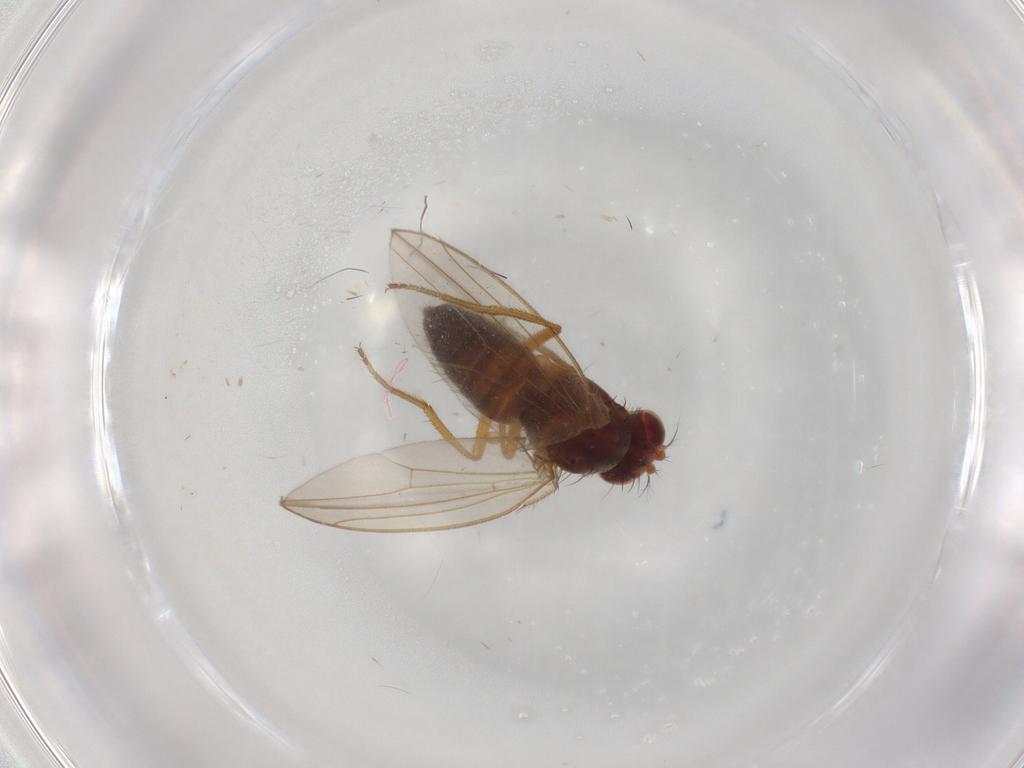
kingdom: Animalia
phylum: Arthropoda
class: Insecta
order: Diptera
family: Drosophilidae
